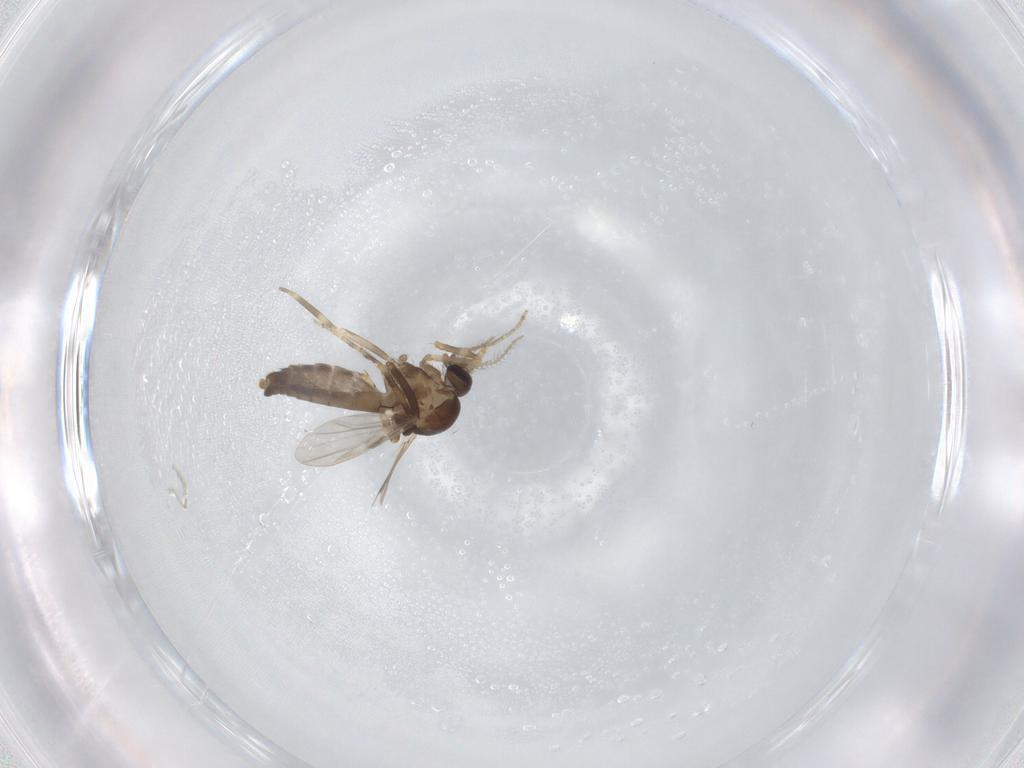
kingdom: Animalia
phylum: Arthropoda
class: Insecta
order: Diptera
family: Ceratopogonidae
